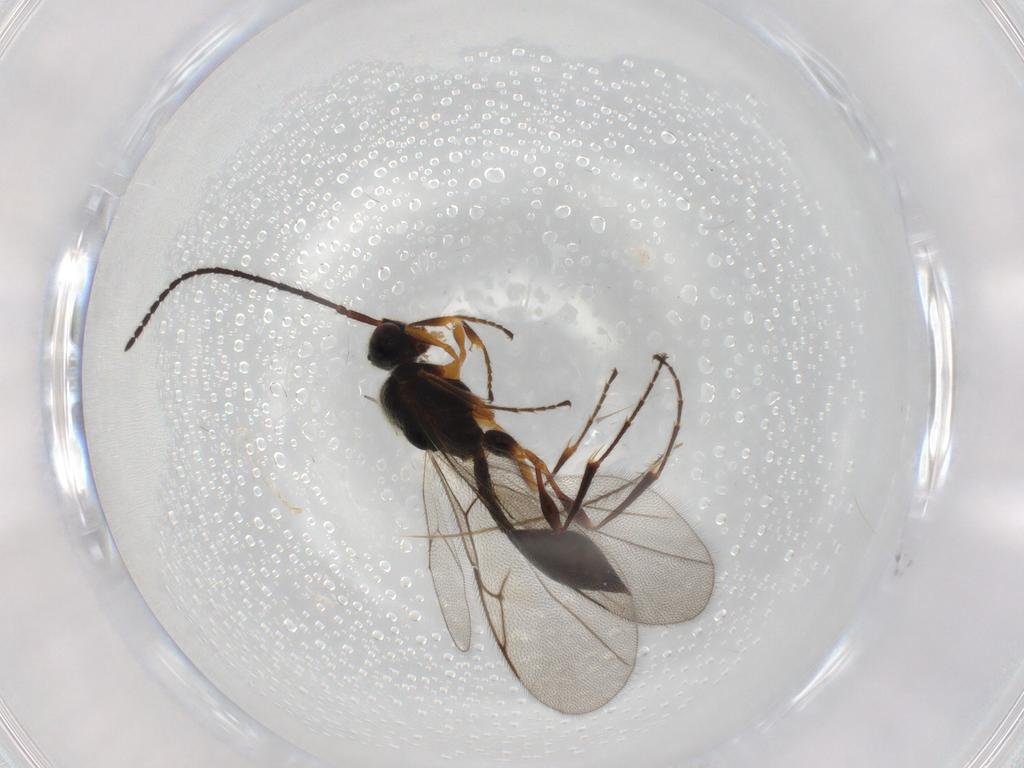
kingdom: Animalia
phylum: Arthropoda
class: Insecta
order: Hymenoptera
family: Diapriidae
